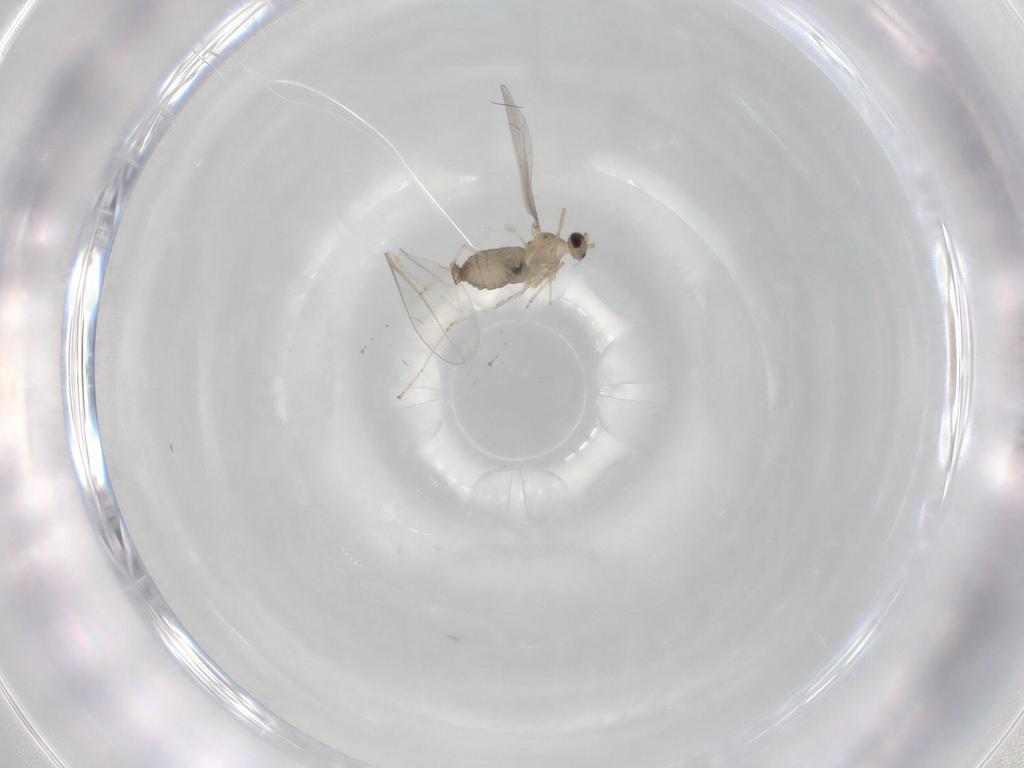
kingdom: Animalia
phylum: Arthropoda
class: Insecta
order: Diptera
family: Cecidomyiidae
